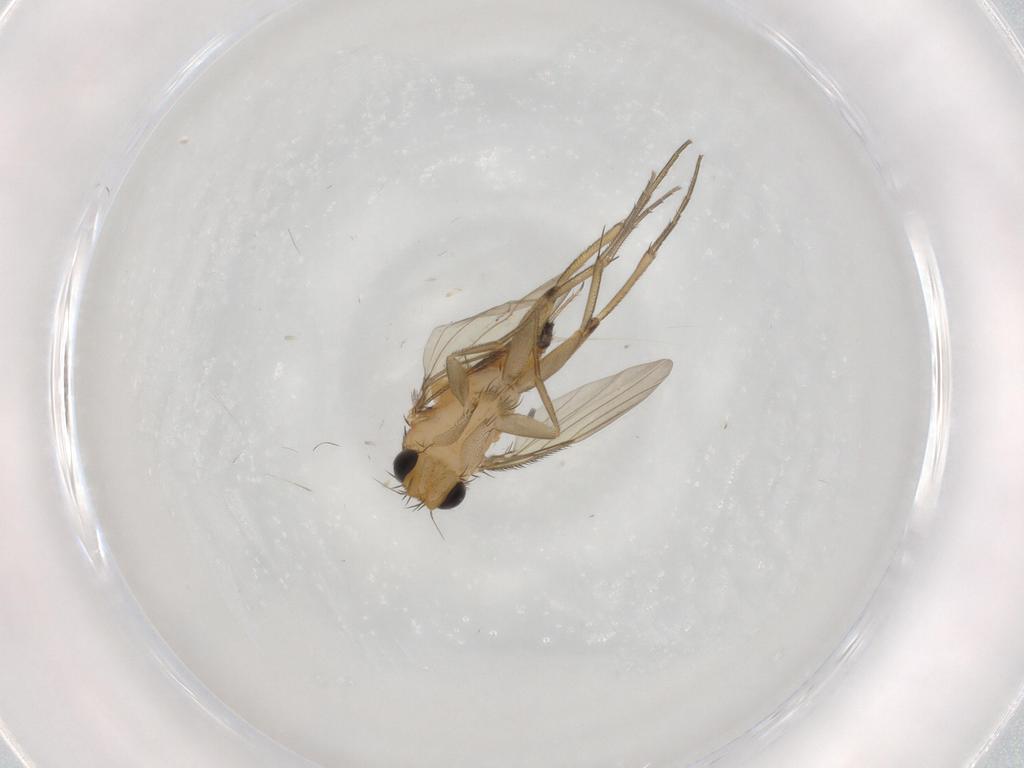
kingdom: Animalia
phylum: Arthropoda
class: Insecta
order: Diptera
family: Phoridae
